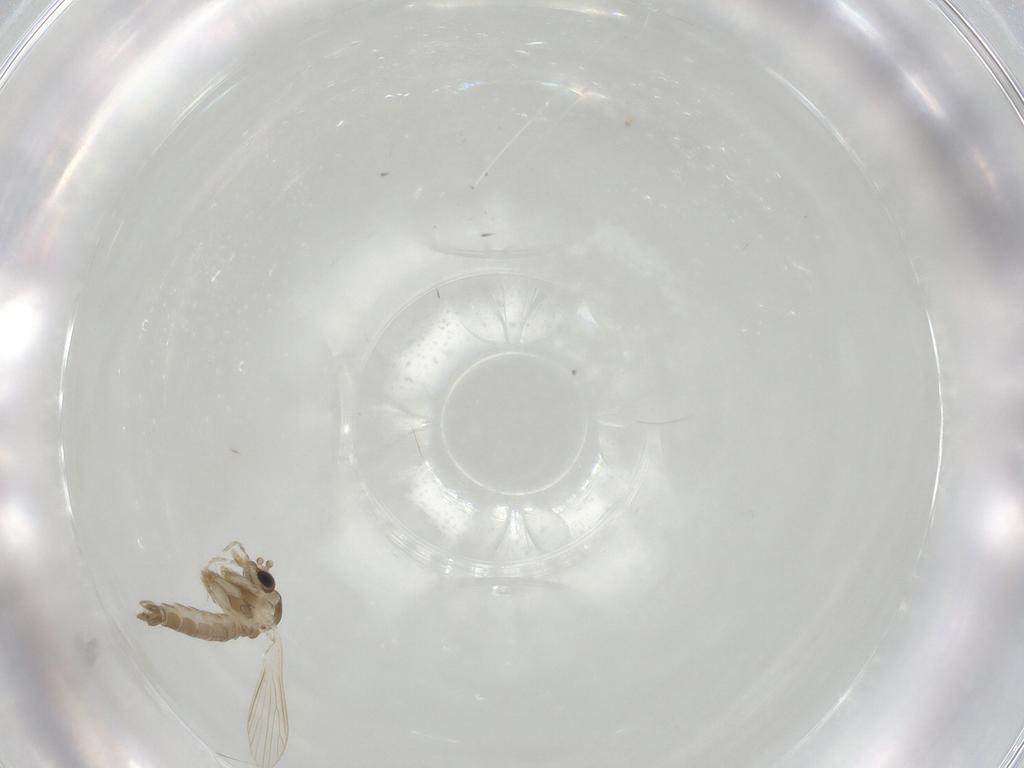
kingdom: Animalia
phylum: Arthropoda
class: Insecta
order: Diptera
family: Psychodidae
